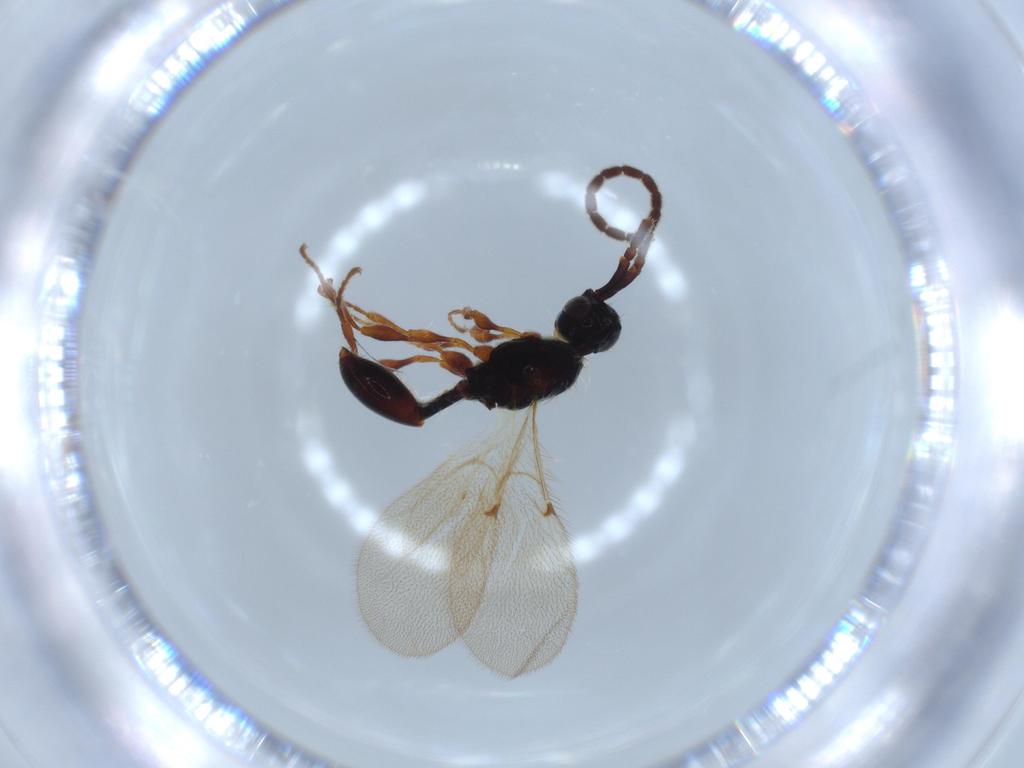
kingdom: Animalia
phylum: Arthropoda
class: Insecta
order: Hymenoptera
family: Diapriidae
